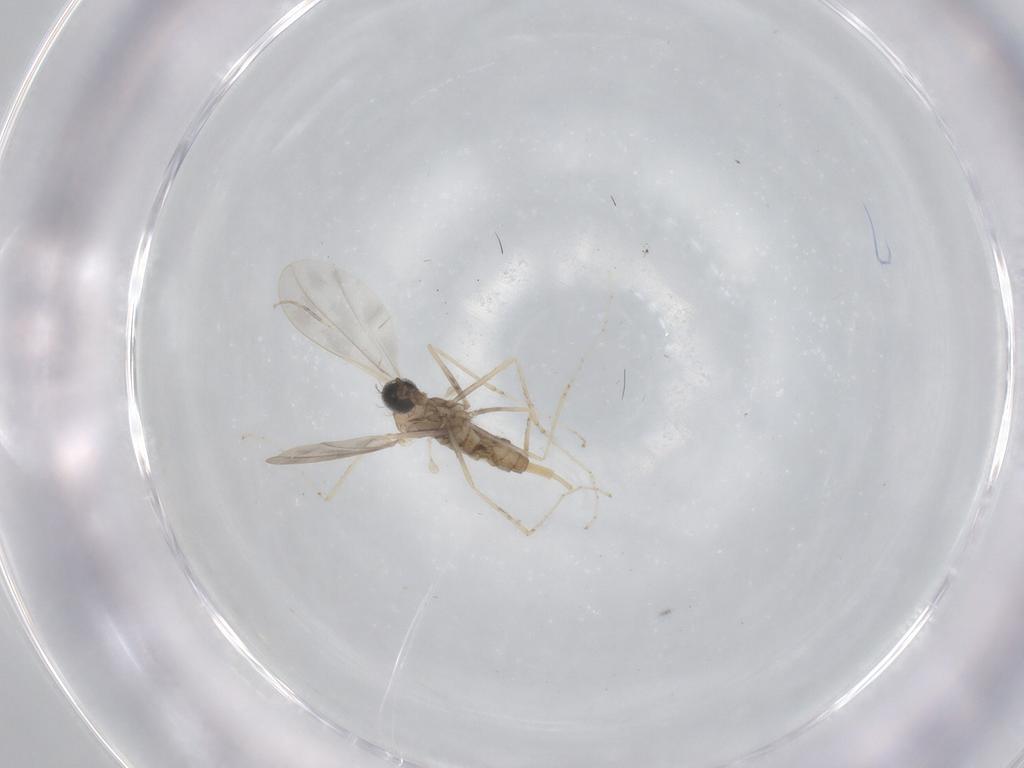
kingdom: Animalia
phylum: Arthropoda
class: Insecta
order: Diptera
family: Cecidomyiidae
